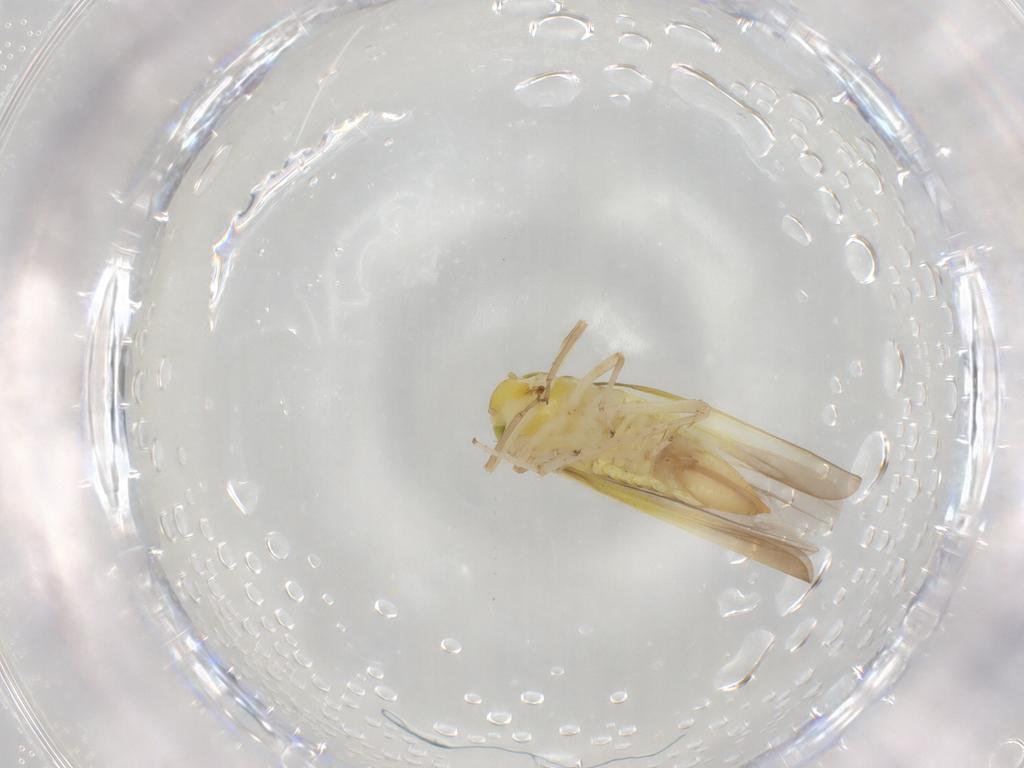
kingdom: Animalia
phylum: Arthropoda
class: Insecta
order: Hemiptera
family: Cicadellidae
